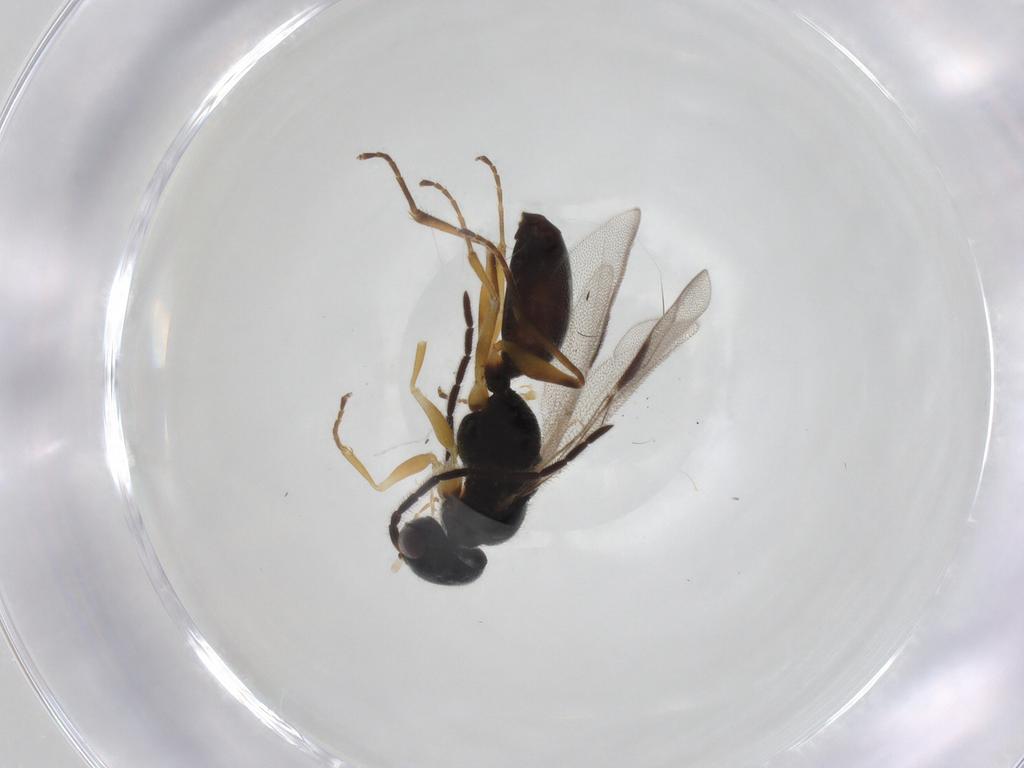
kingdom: Animalia
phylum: Arthropoda
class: Insecta
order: Hymenoptera
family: Dryinidae
